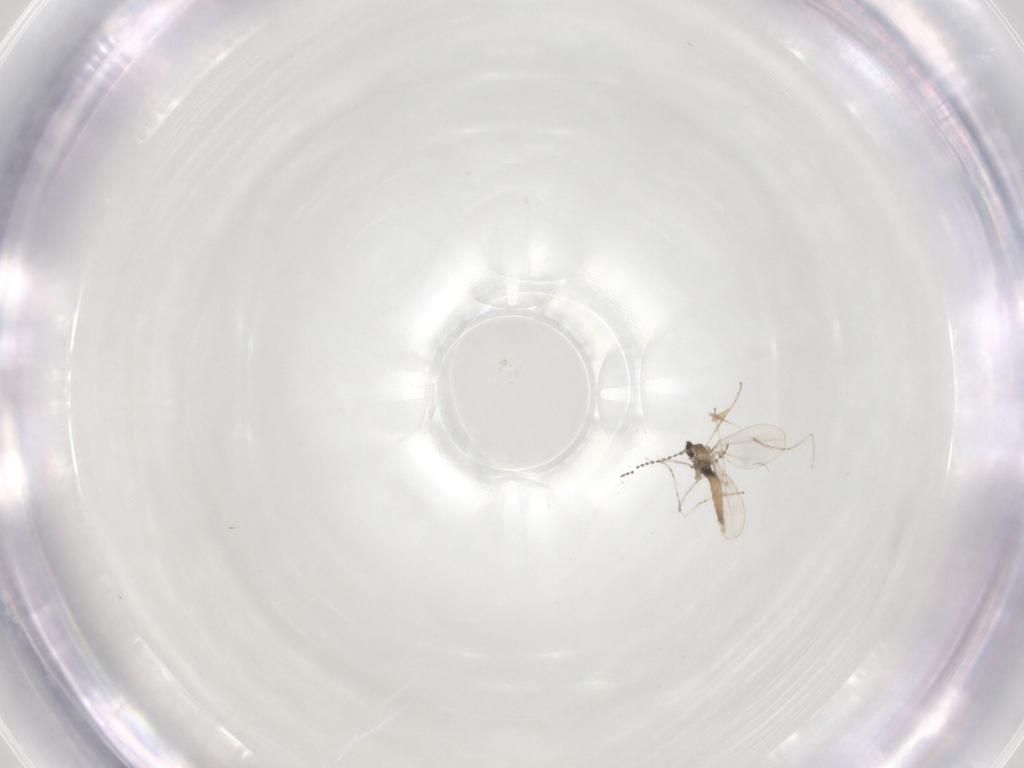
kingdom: Animalia
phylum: Arthropoda
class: Insecta
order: Diptera
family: Cecidomyiidae
